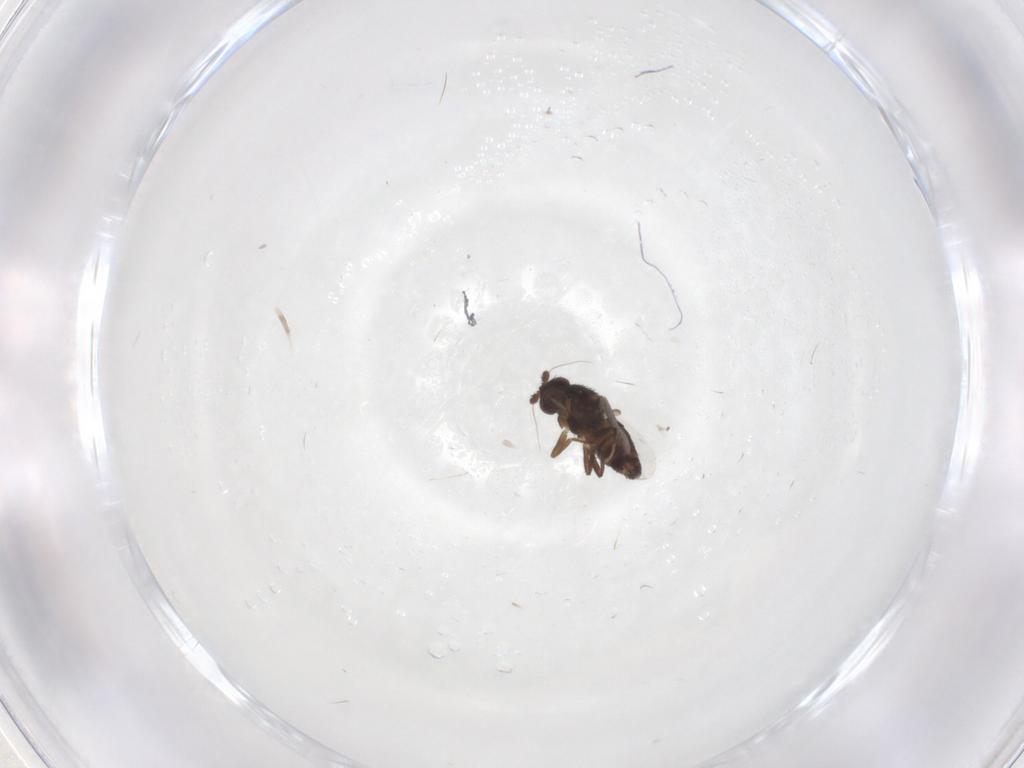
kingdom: Animalia
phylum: Arthropoda
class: Insecta
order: Diptera
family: Sphaeroceridae
